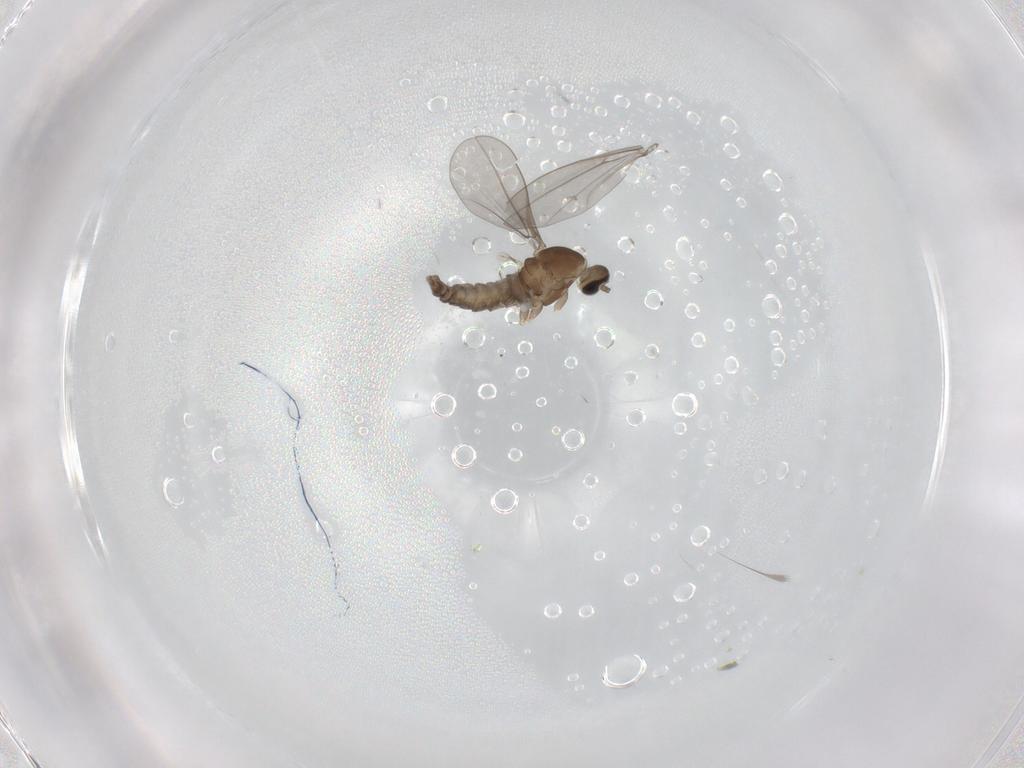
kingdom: Animalia
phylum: Arthropoda
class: Insecta
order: Diptera
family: Cecidomyiidae
